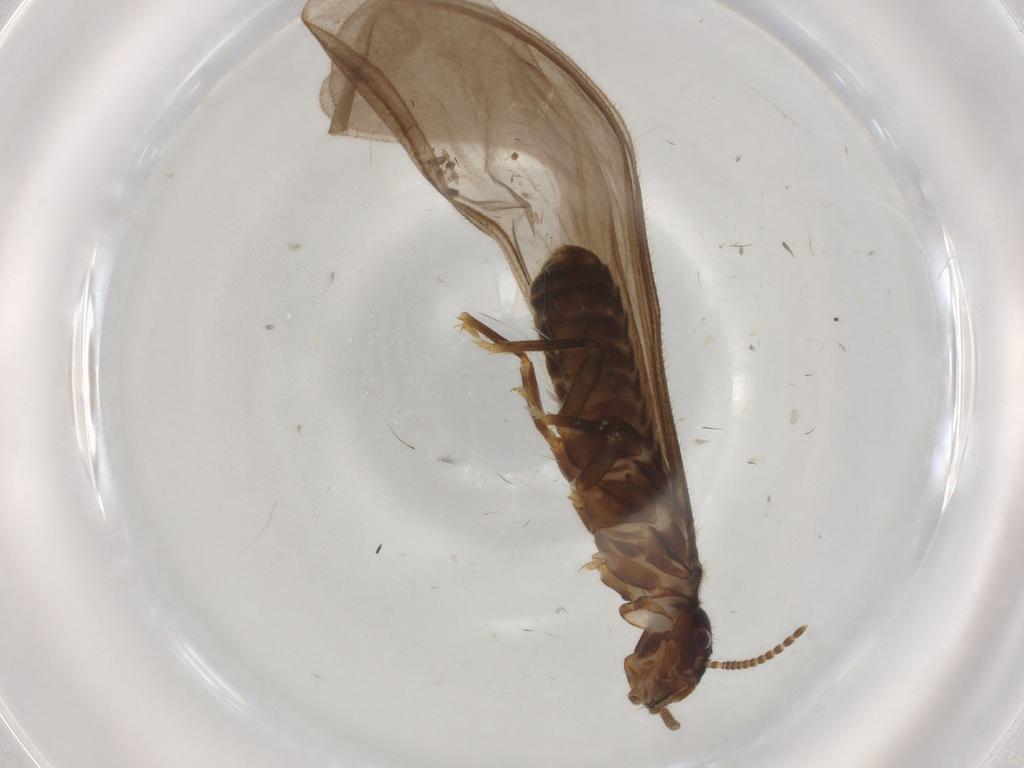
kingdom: Animalia
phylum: Arthropoda
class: Insecta
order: Blattodea
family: Termitidae
